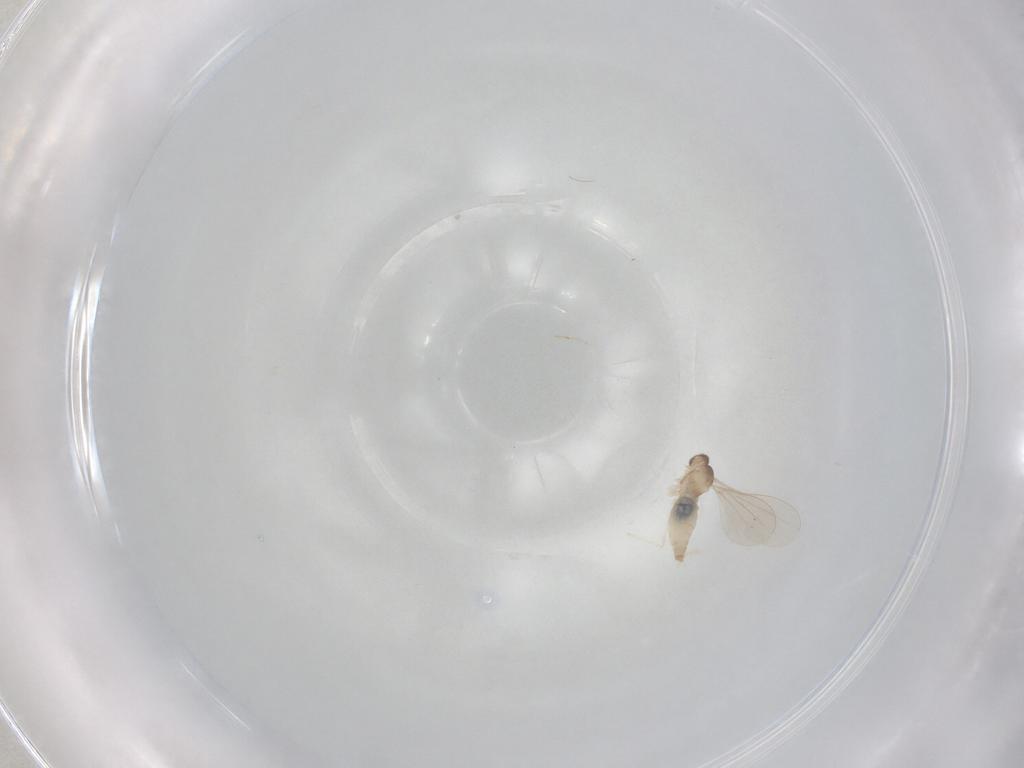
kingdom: Animalia
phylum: Arthropoda
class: Insecta
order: Diptera
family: Cecidomyiidae
